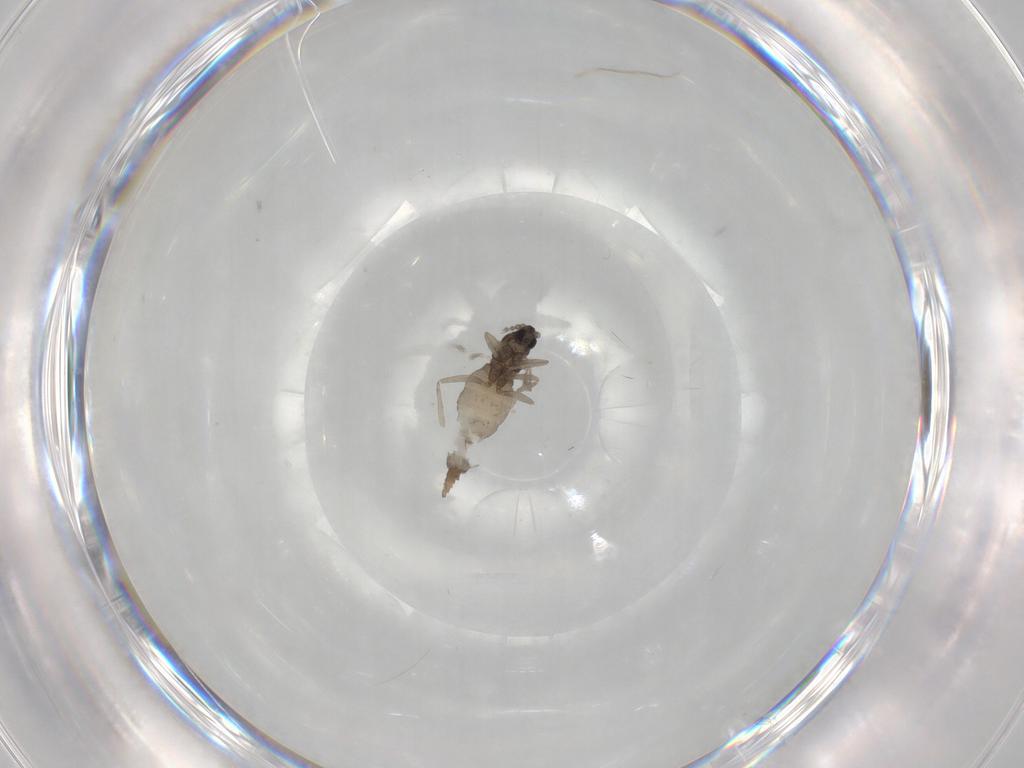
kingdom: Animalia
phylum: Arthropoda
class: Insecta
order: Diptera
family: Cecidomyiidae
